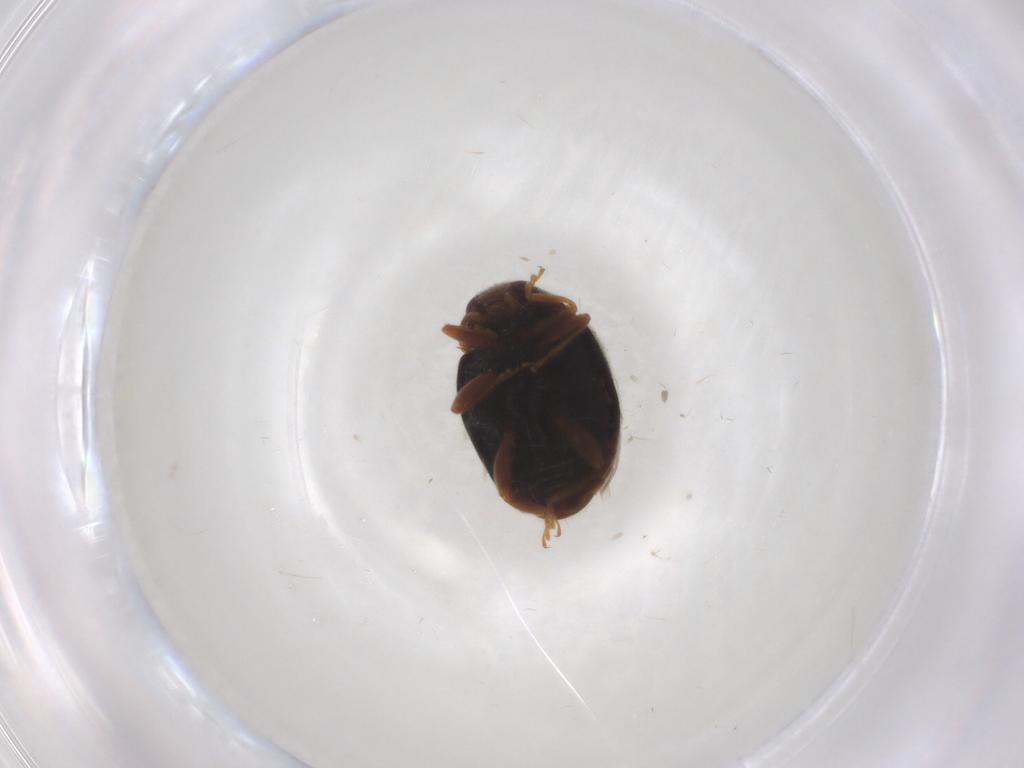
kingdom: Animalia
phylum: Arthropoda
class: Insecta
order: Coleoptera
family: Coccinellidae
